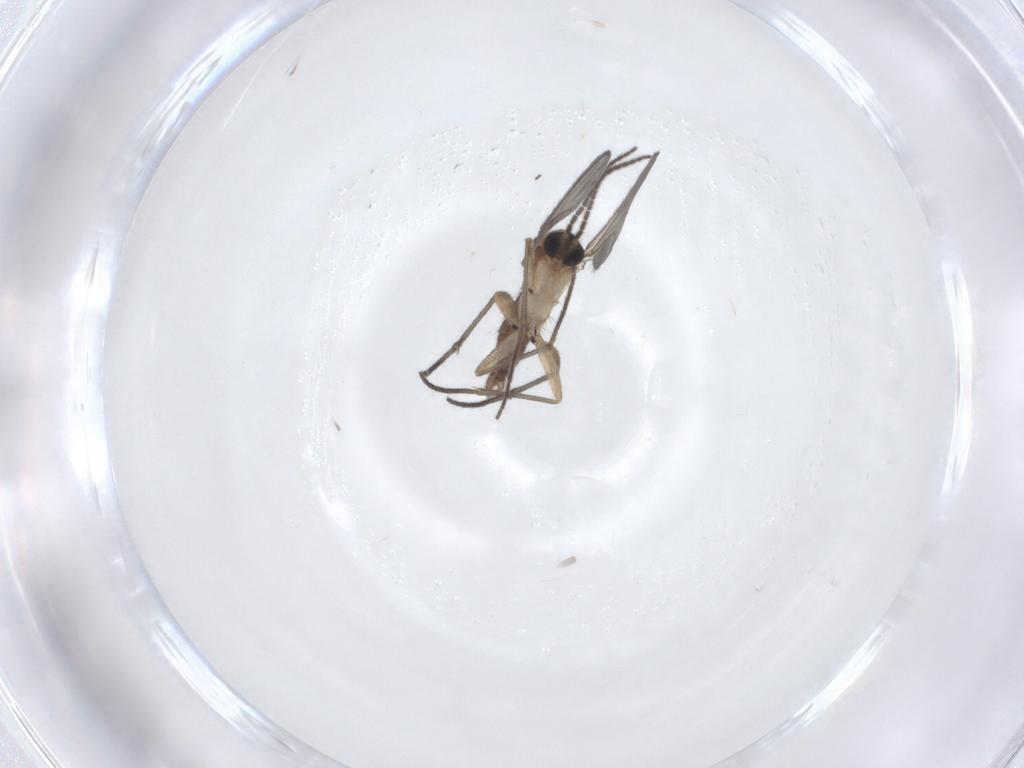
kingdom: Animalia
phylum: Arthropoda
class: Insecta
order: Diptera
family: Sciaridae
